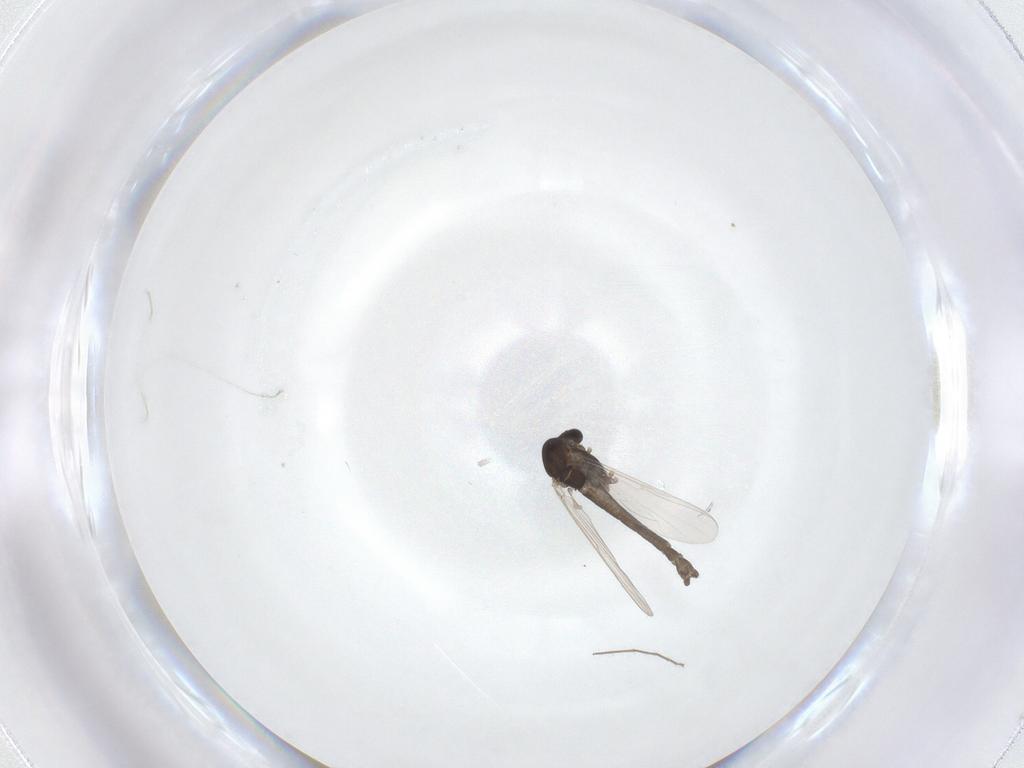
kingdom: Animalia
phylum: Arthropoda
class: Insecta
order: Diptera
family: Chironomidae
